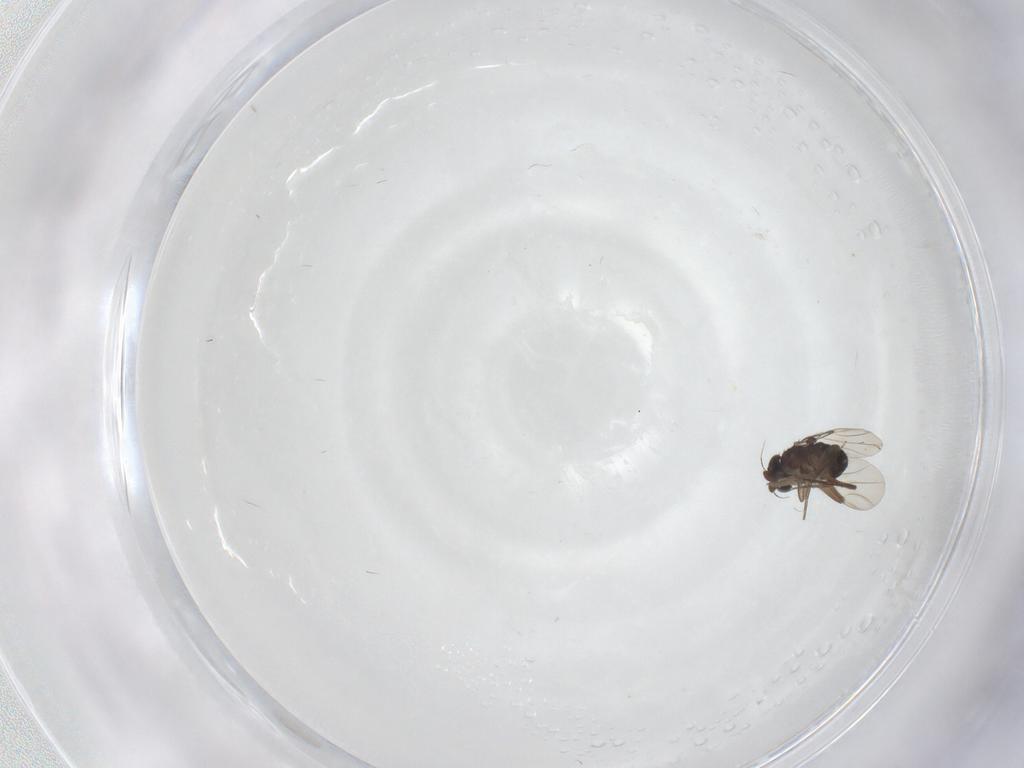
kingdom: Animalia
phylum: Arthropoda
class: Insecta
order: Diptera
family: Phoridae
